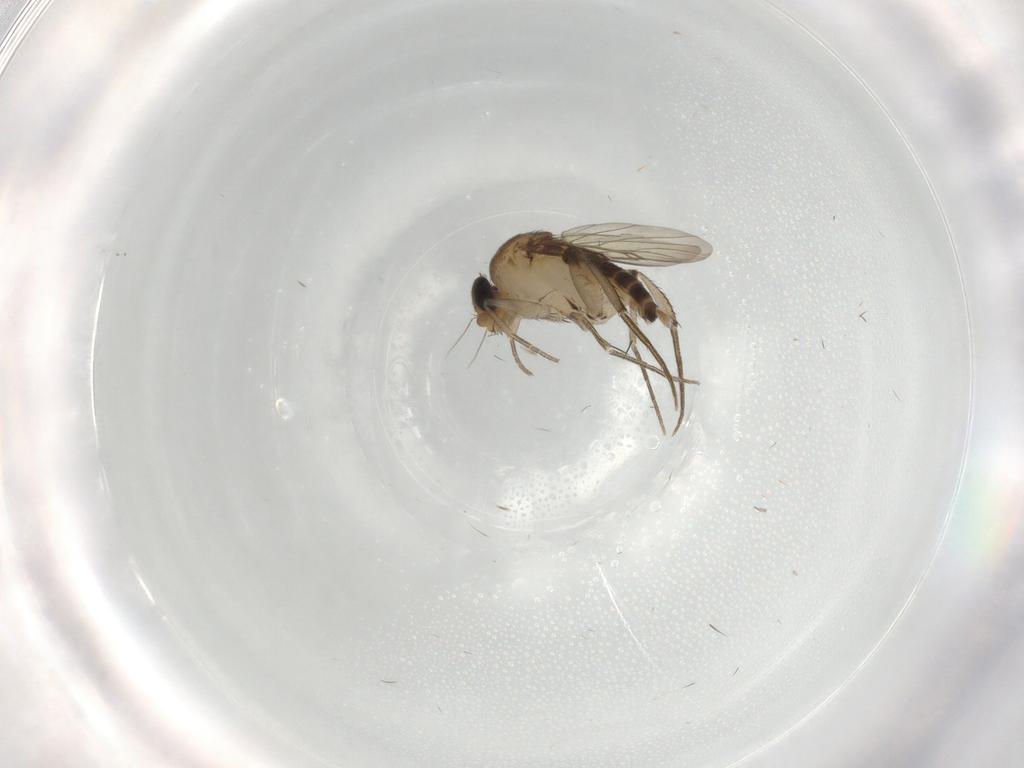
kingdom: Animalia
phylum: Arthropoda
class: Insecta
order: Diptera
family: Phoridae
